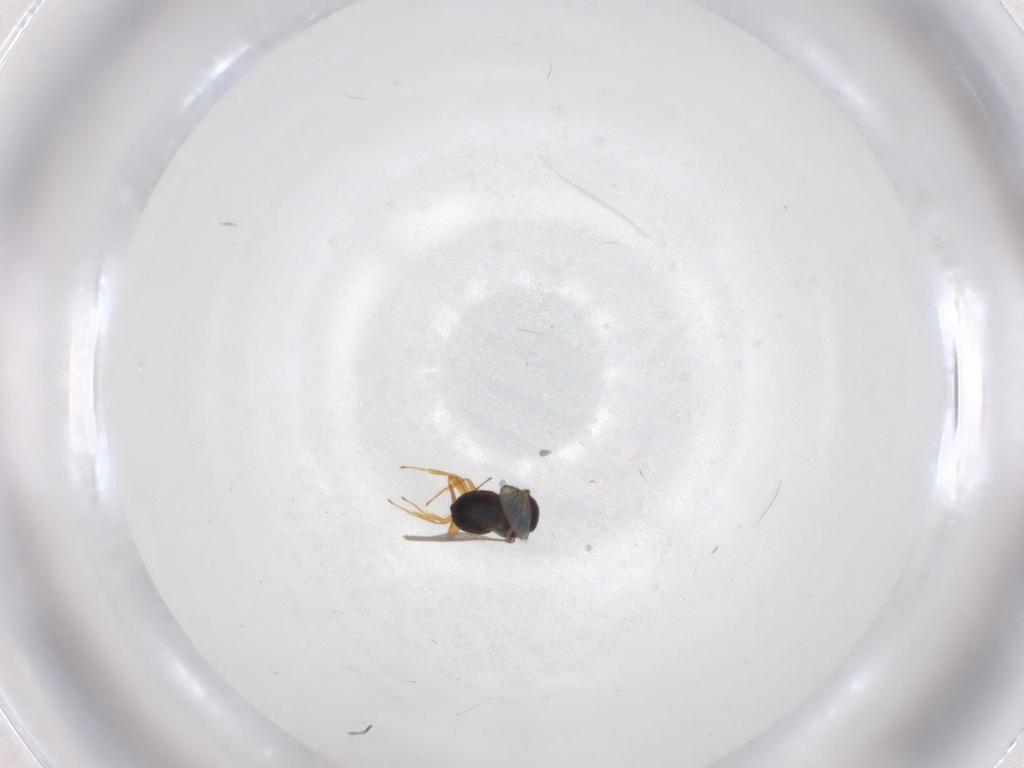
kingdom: Animalia
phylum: Arthropoda
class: Insecta
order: Hymenoptera
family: Scelionidae
